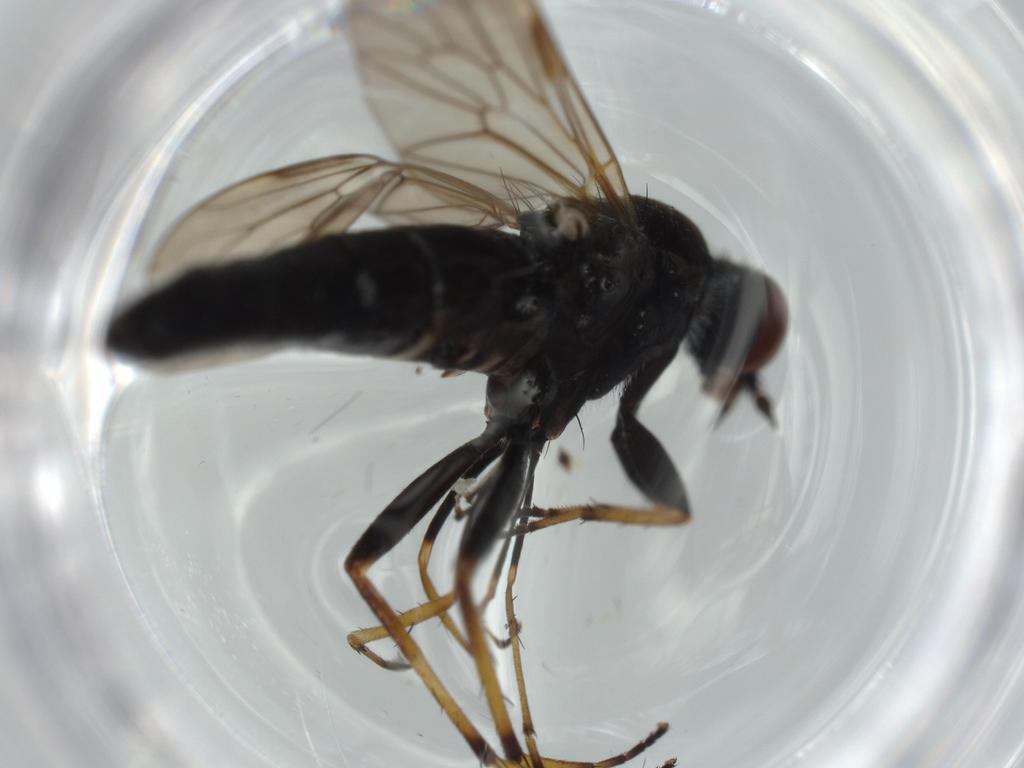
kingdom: Animalia
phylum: Arthropoda
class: Insecta
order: Diptera
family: Therevidae
